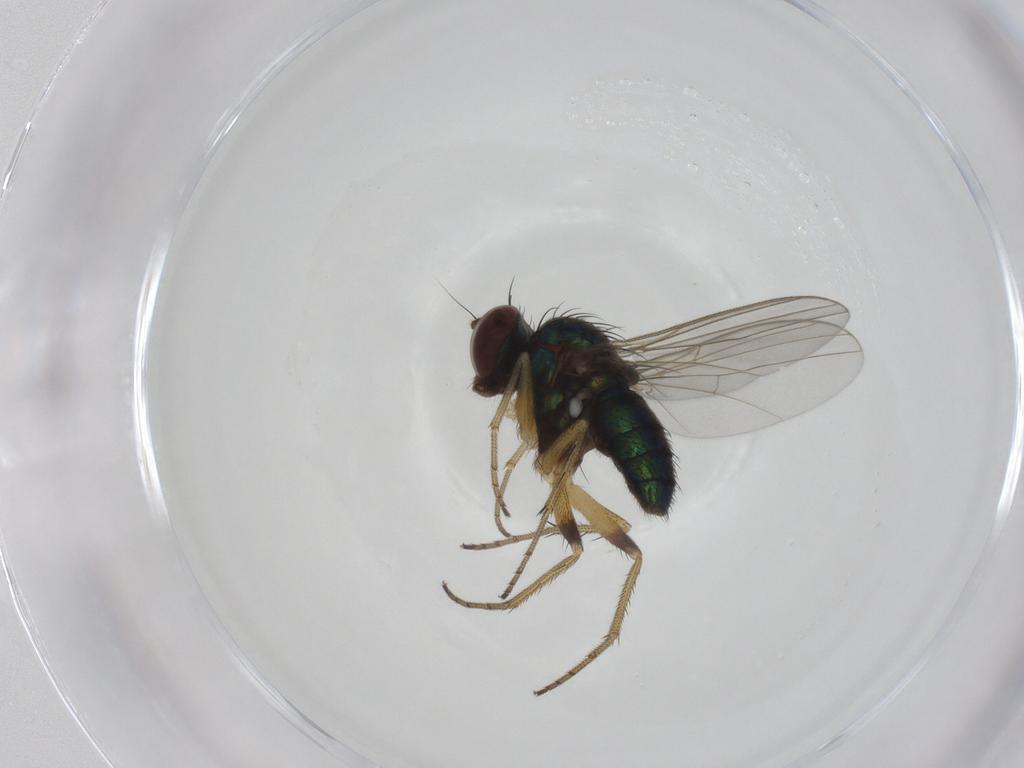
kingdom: Animalia
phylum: Arthropoda
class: Insecta
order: Diptera
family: Dolichopodidae
